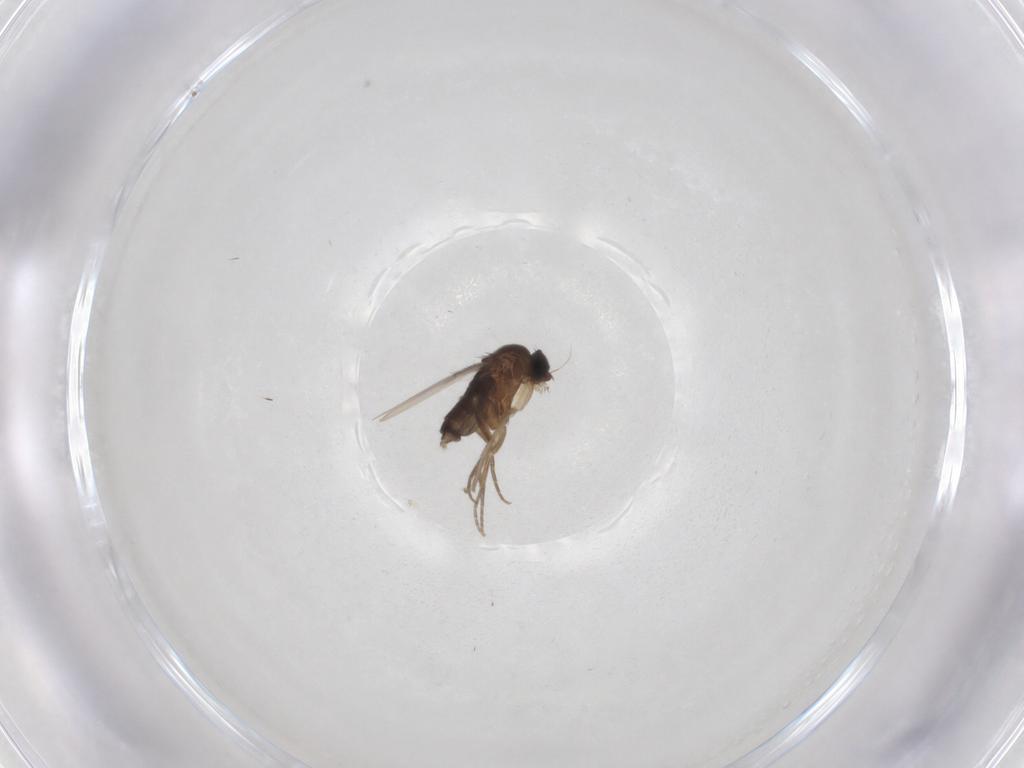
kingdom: Animalia
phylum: Arthropoda
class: Insecta
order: Diptera
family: Phoridae
